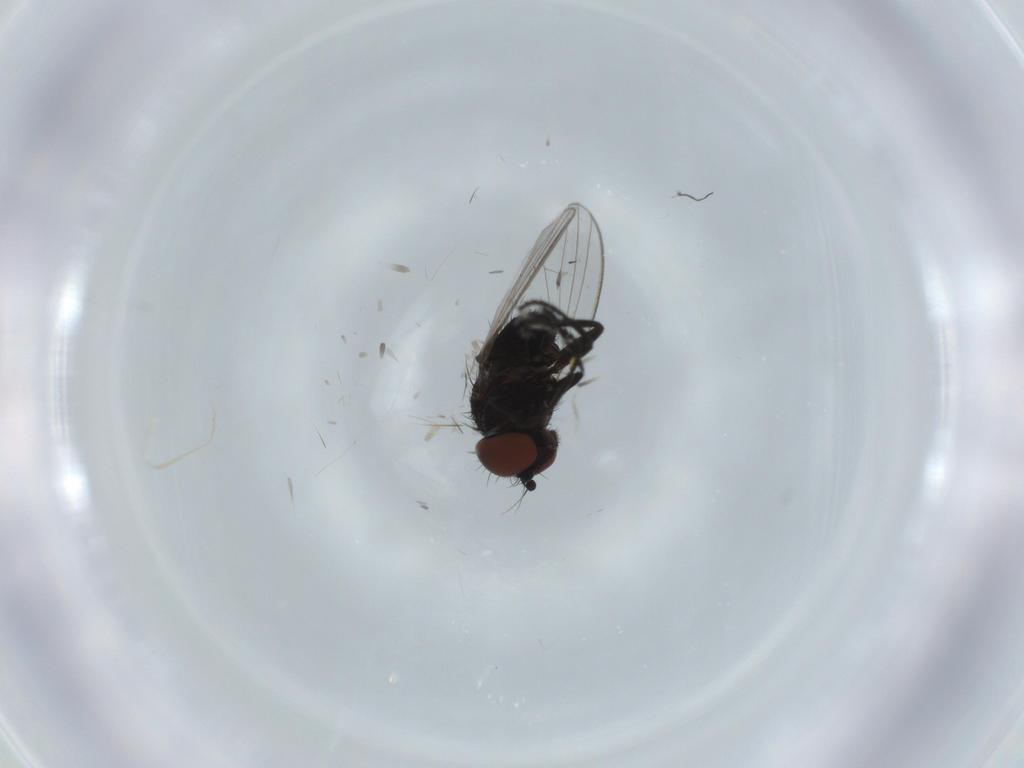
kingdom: Animalia
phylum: Arthropoda
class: Insecta
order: Diptera
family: Milichiidae
